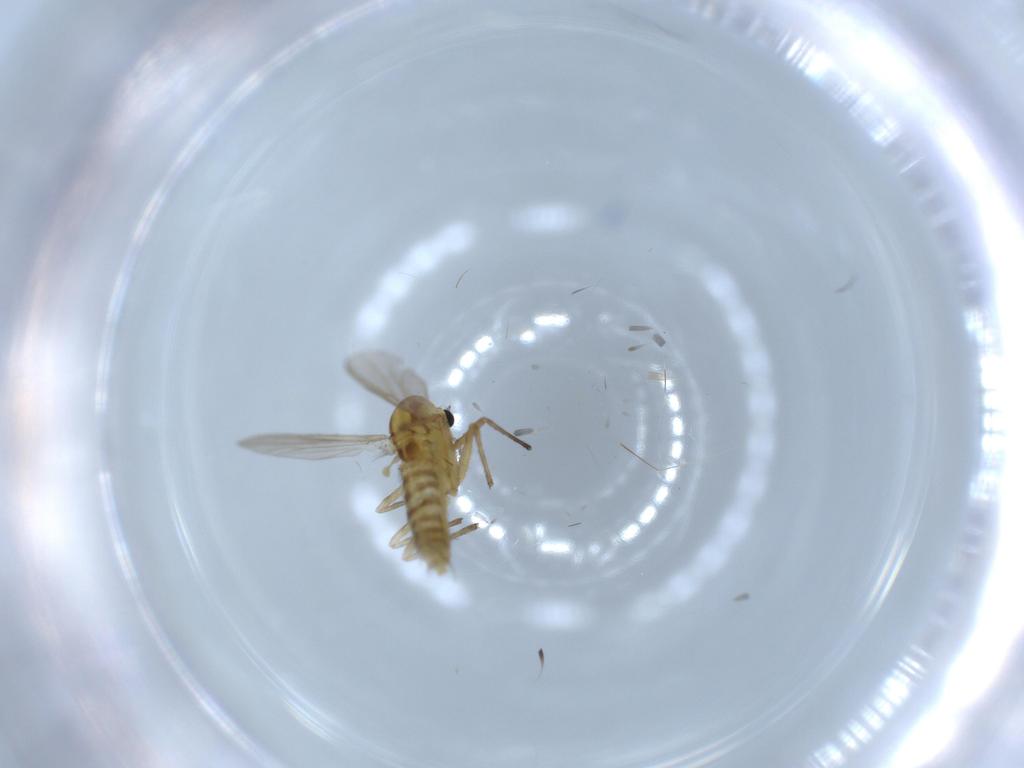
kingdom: Animalia
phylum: Arthropoda
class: Insecta
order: Diptera
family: Chironomidae
